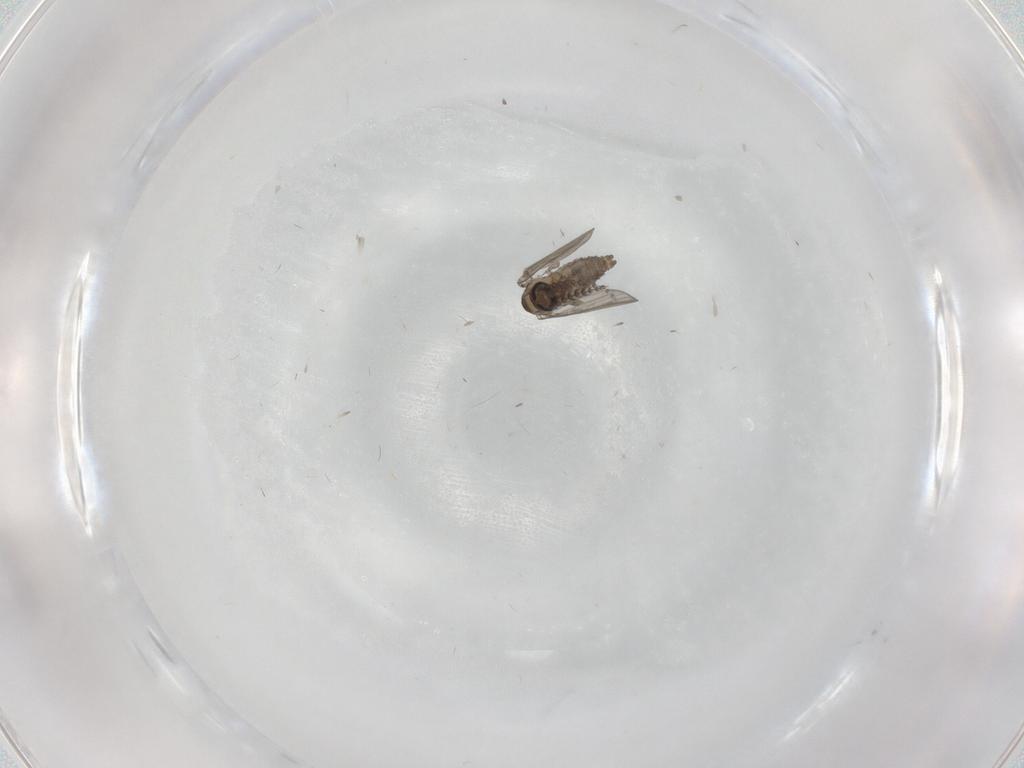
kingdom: Animalia
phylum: Arthropoda
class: Insecta
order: Diptera
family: Psychodidae
